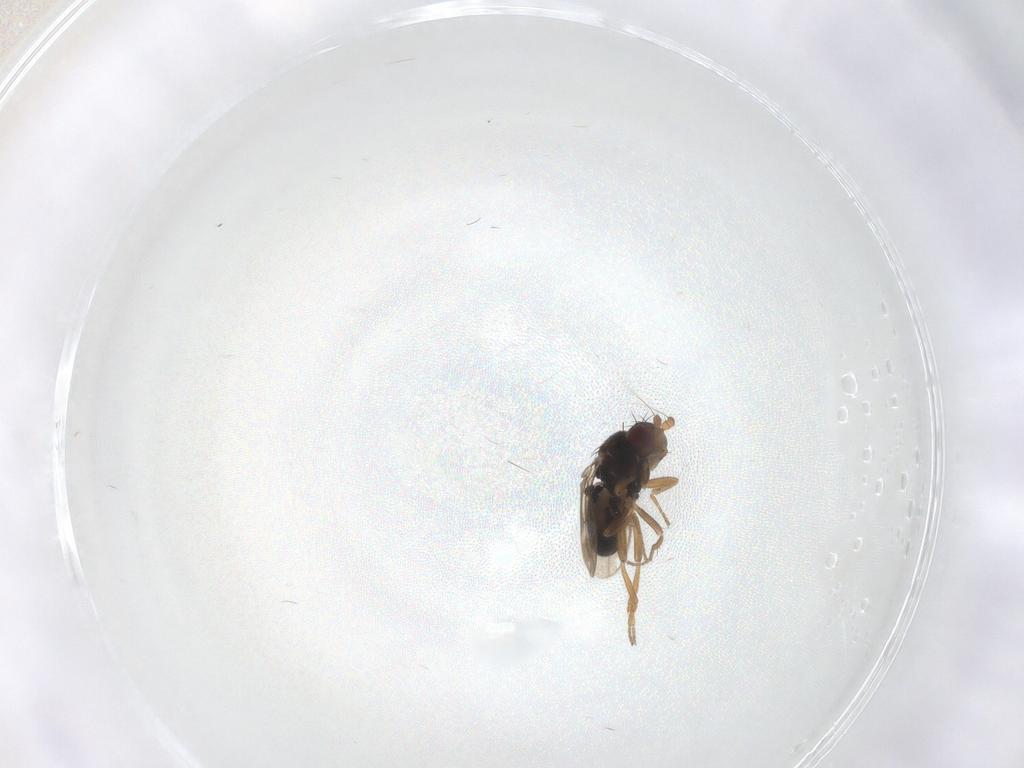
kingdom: Animalia
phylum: Arthropoda
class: Insecta
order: Diptera
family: Sphaeroceridae
